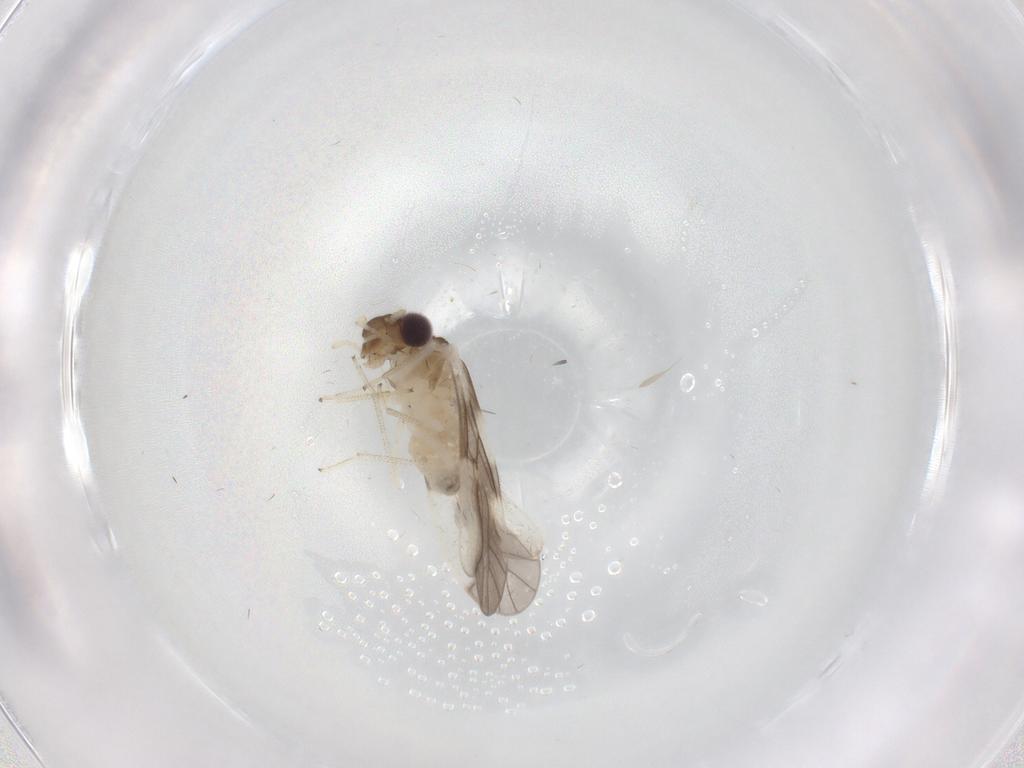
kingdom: Animalia
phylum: Arthropoda
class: Insecta
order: Psocodea
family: Caeciliusidae
